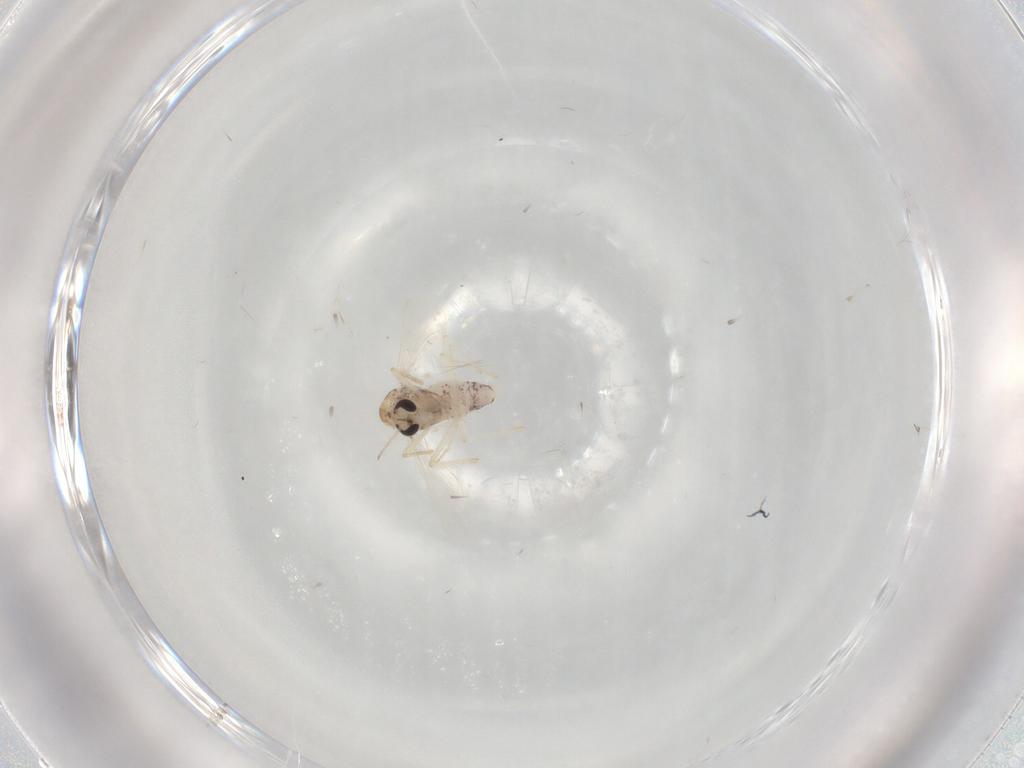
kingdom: Animalia
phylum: Arthropoda
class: Insecta
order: Diptera
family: Chironomidae
